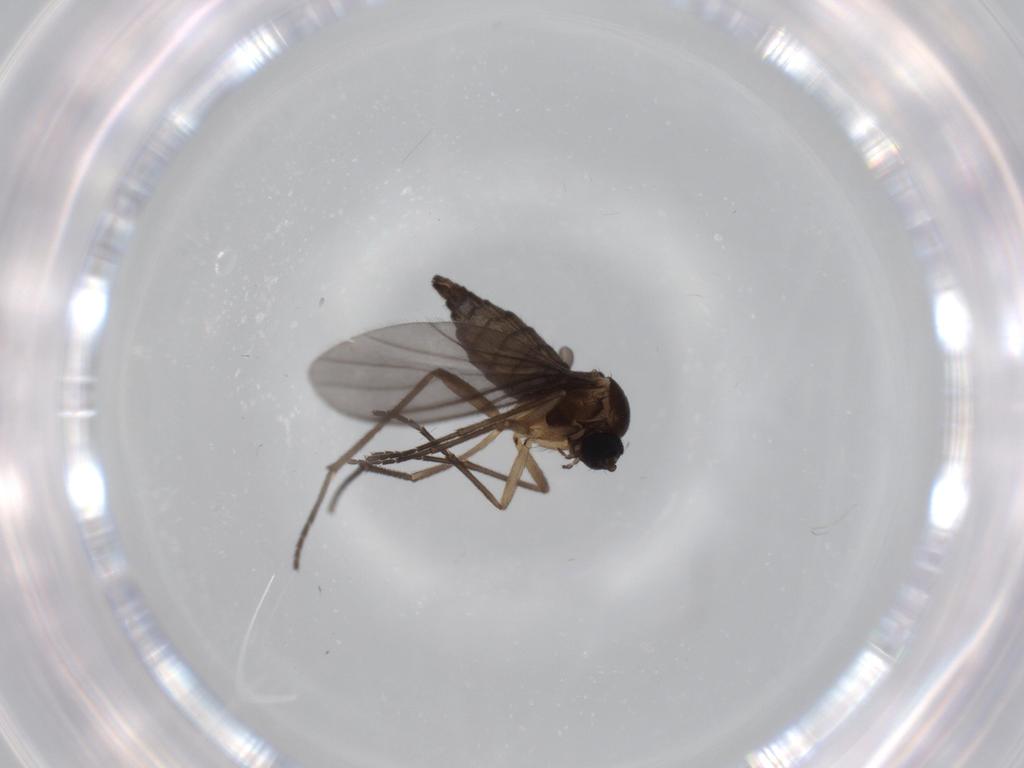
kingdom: Animalia
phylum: Arthropoda
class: Insecta
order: Diptera
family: Sciaridae
